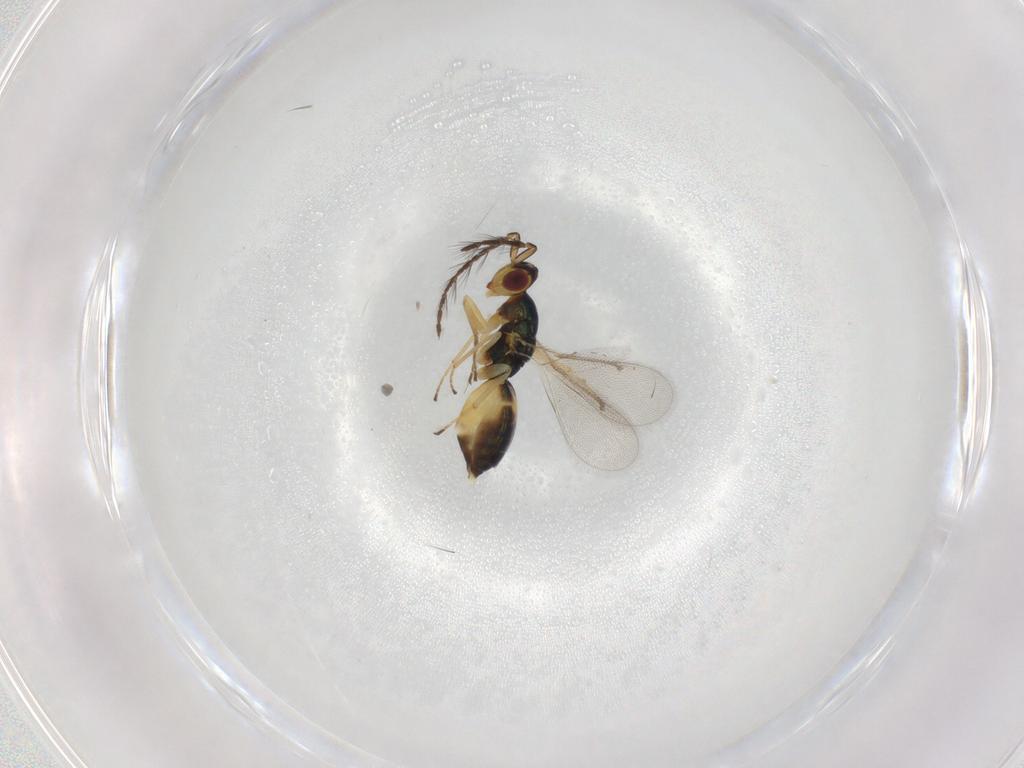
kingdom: Animalia
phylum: Arthropoda
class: Insecta
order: Hymenoptera
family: Eulophidae
